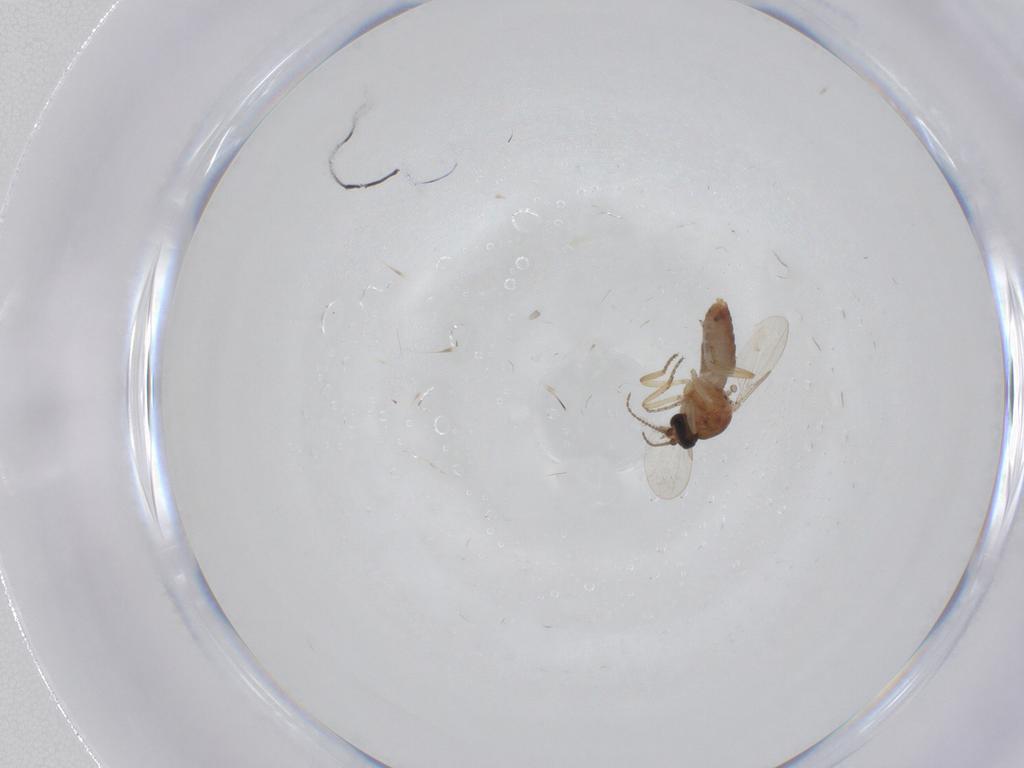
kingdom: Animalia
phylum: Arthropoda
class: Insecta
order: Diptera
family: Ceratopogonidae
